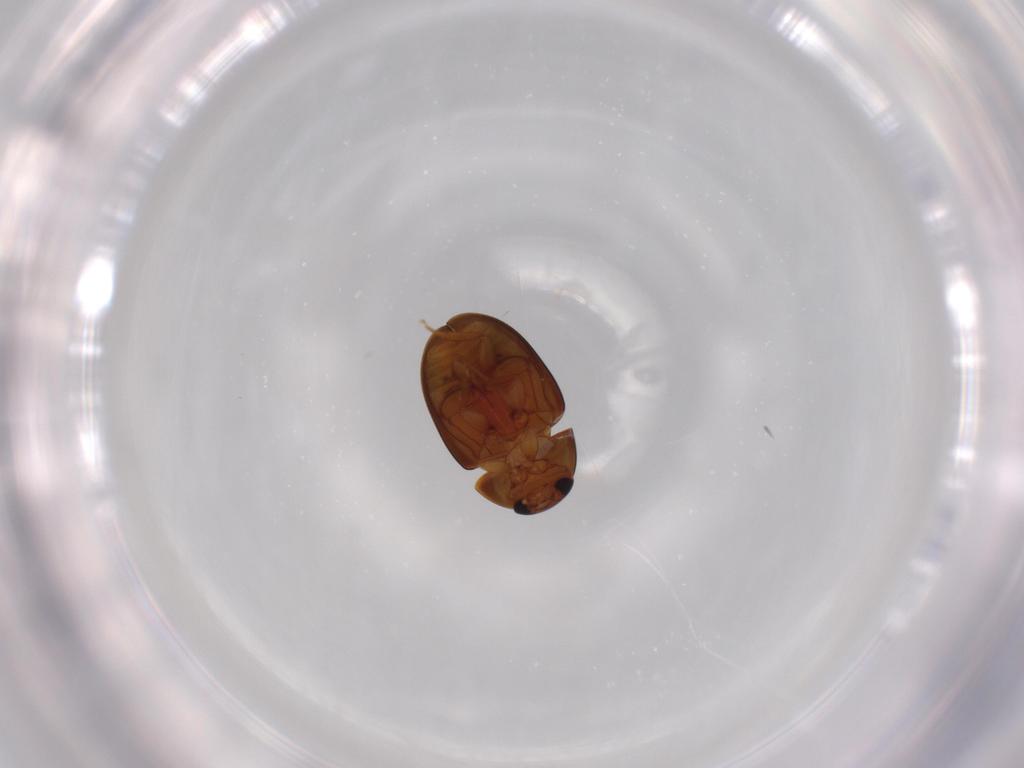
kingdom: Animalia
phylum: Arthropoda
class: Insecta
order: Coleoptera
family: Phalacridae
